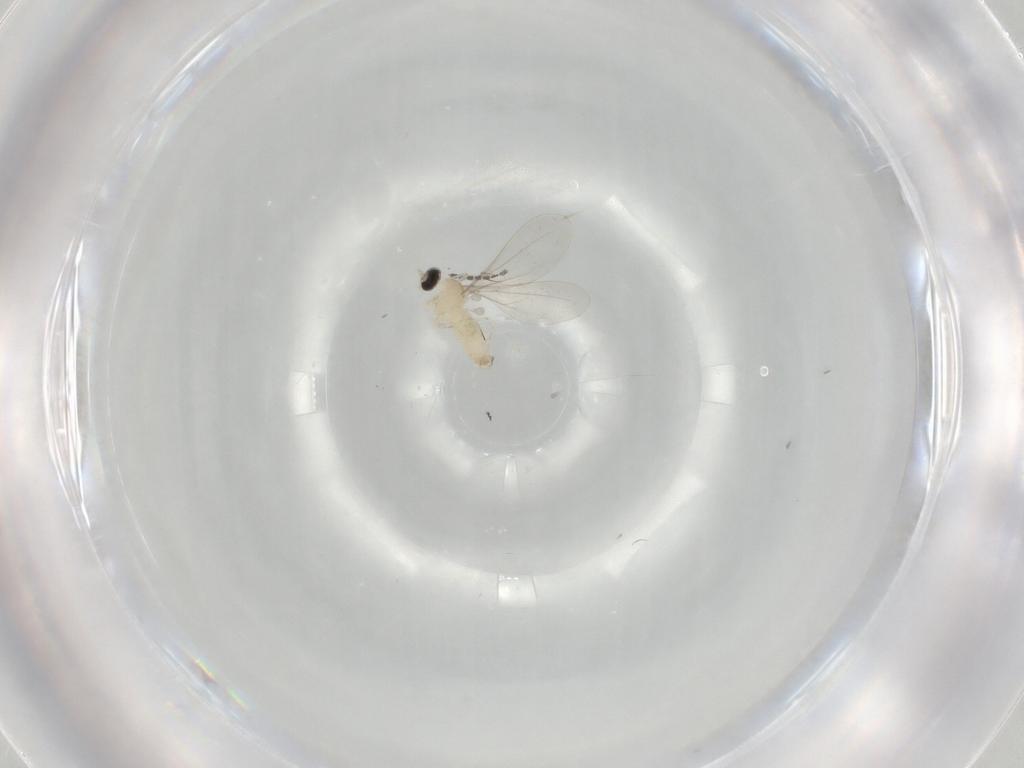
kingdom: Animalia
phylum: Arthropoda
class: Insecta
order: Diptera
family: Sciaridae
